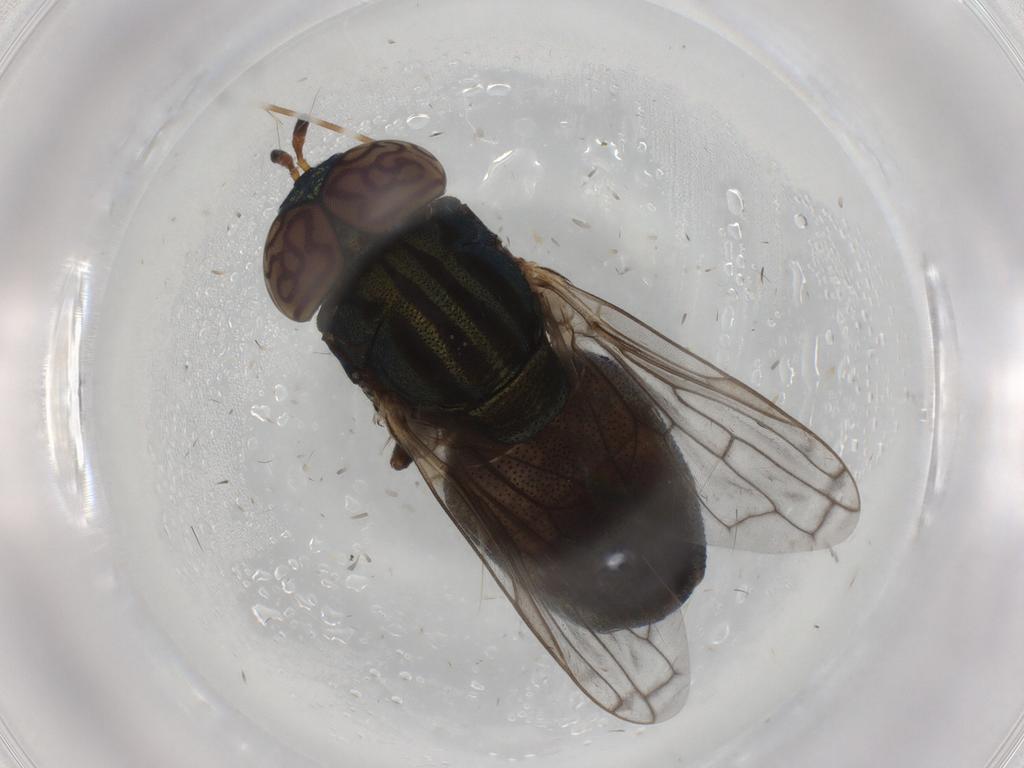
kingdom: Animalia
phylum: Arthropoda
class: Insecta
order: Diptera
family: Syrphidae
